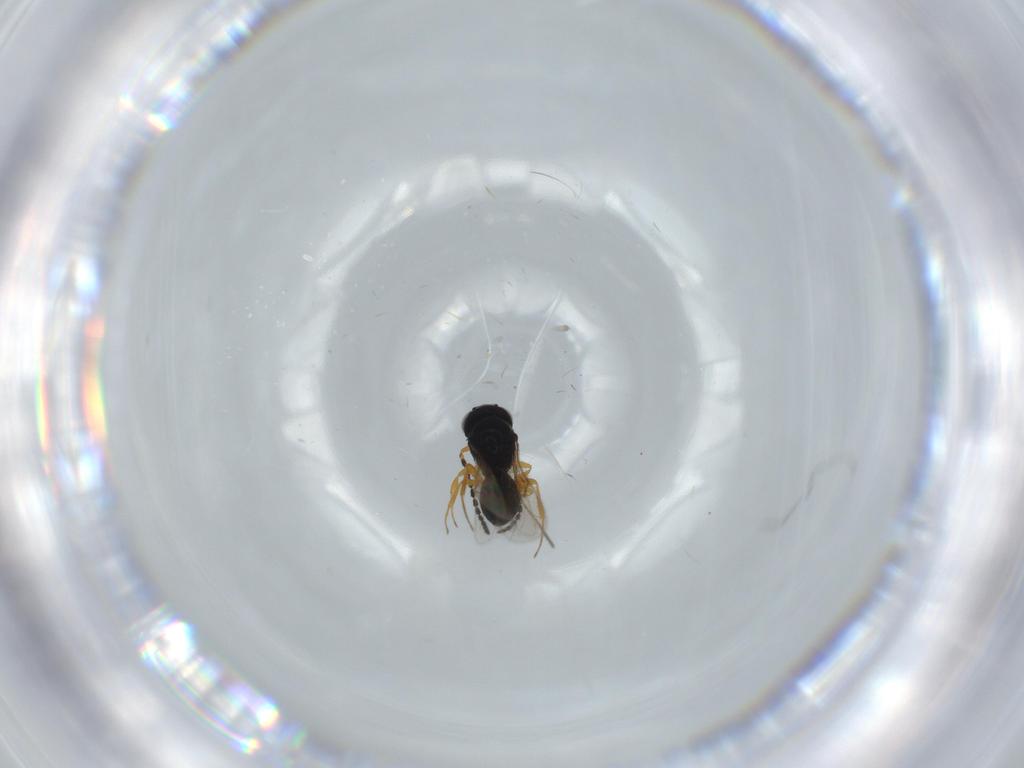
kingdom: Animalia
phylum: Arthropoda
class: Insecta
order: Hymenoptera
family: Scelionidae
